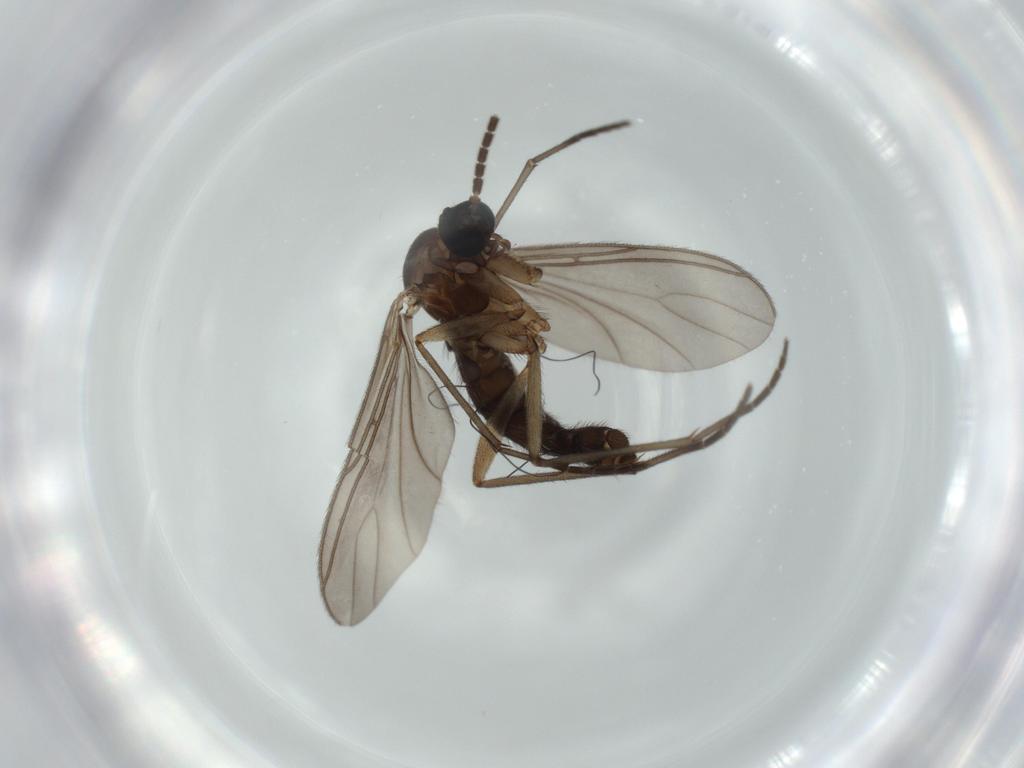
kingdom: Animalia
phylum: Arthropoda
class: Insecta
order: Diptera
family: Sciaridae
